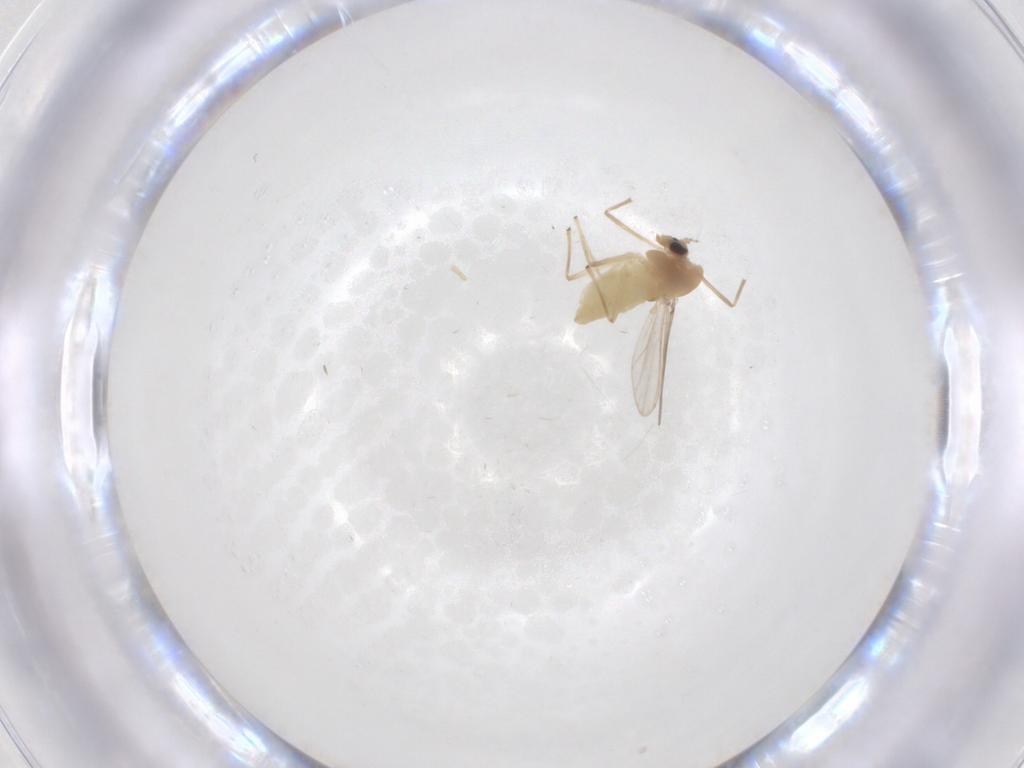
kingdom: Animalia
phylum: Arthropoda
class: Insecta
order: Diptera
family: Chironomidae
